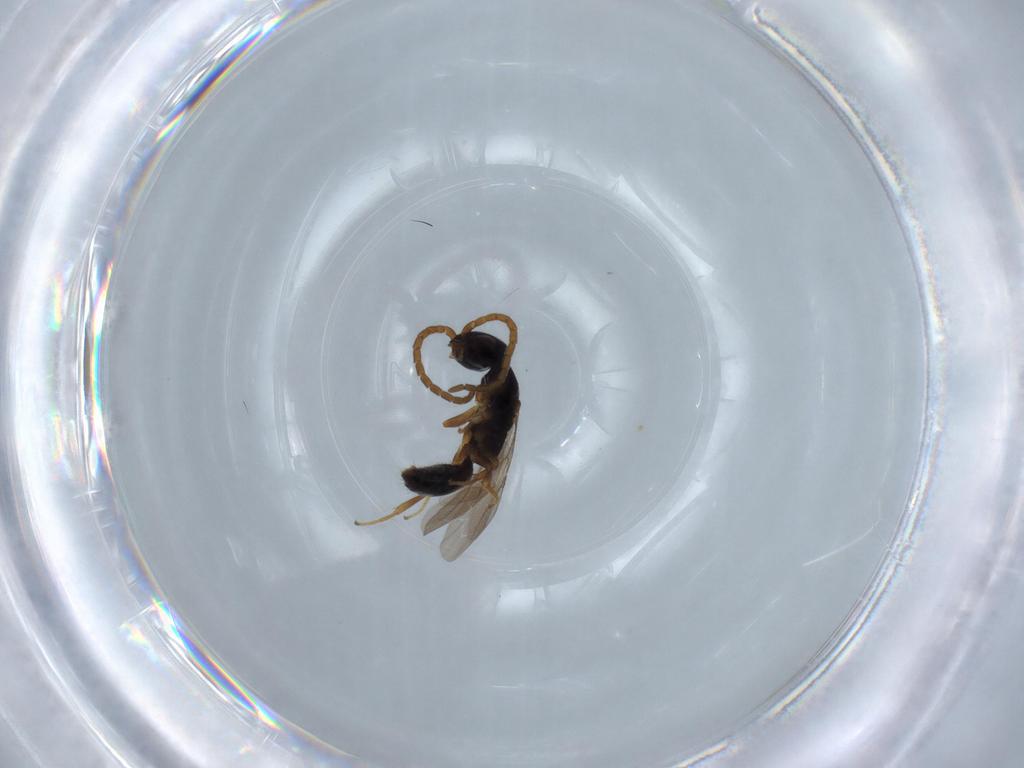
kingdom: Animalia
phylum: Arthropoda
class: Insecta
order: Hymenoptera
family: Bethylidae
